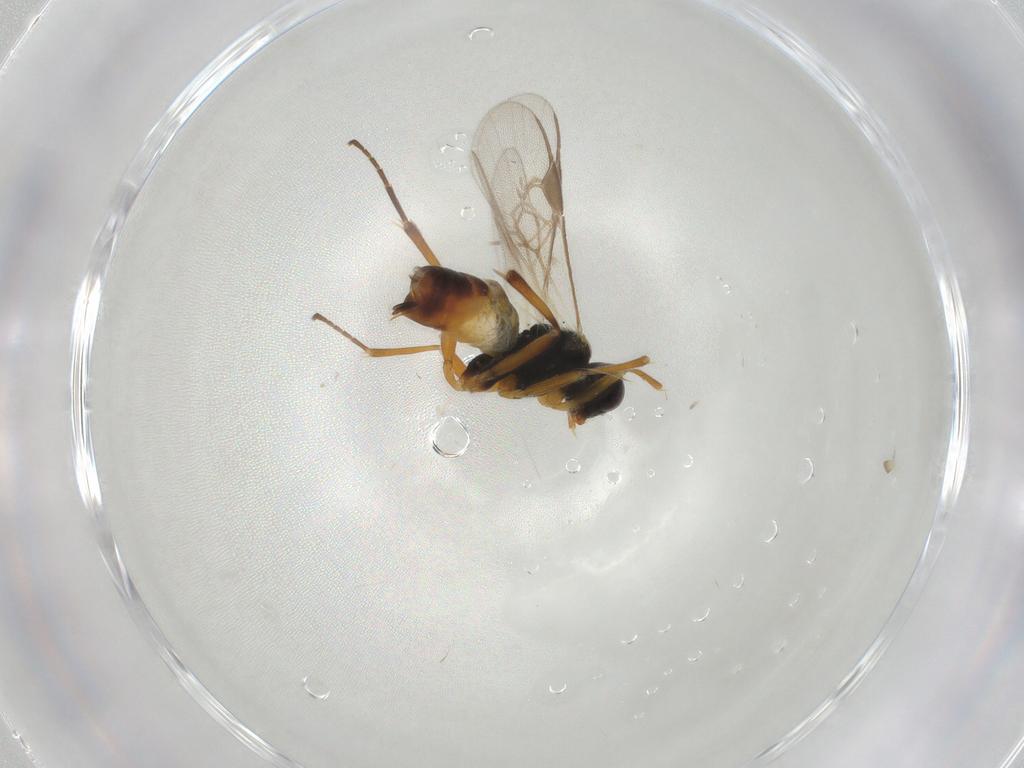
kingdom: Animalia
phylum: Arthropoda
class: Insecta
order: Hymenoptera
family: Braconidae
